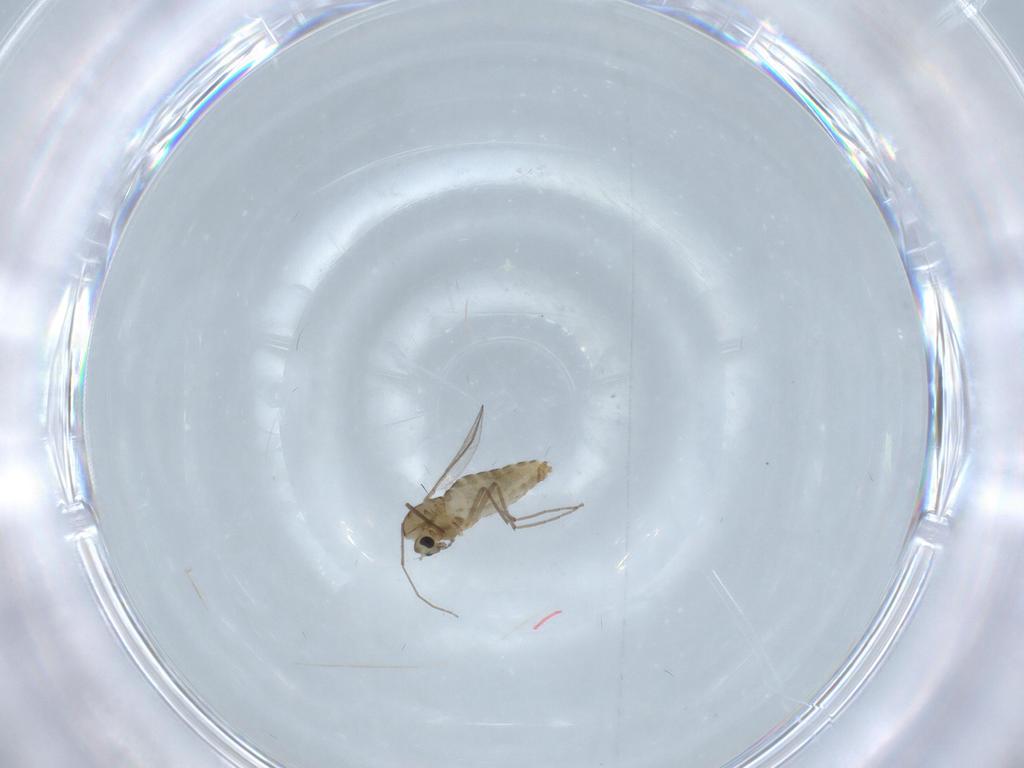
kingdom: Animalia
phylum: Arthropoda
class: Insecta
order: Diptera
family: Chironomidae
